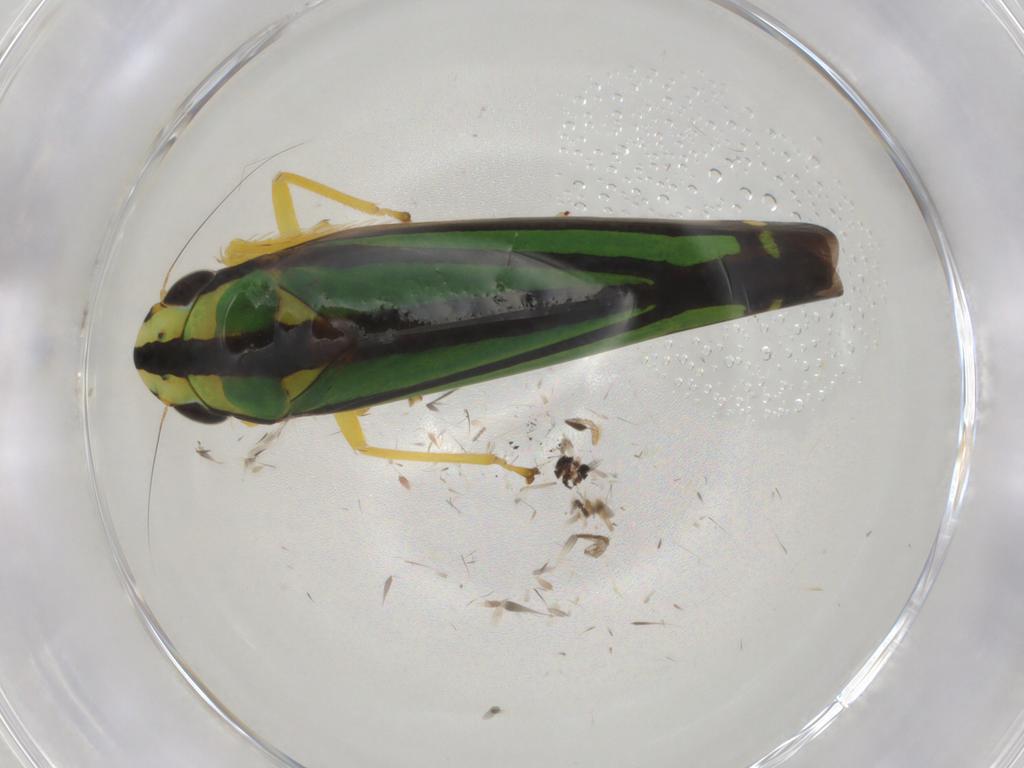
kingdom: Animalia
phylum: Arthropoda
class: Insecta
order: Hemiptera
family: Cicadellidae
